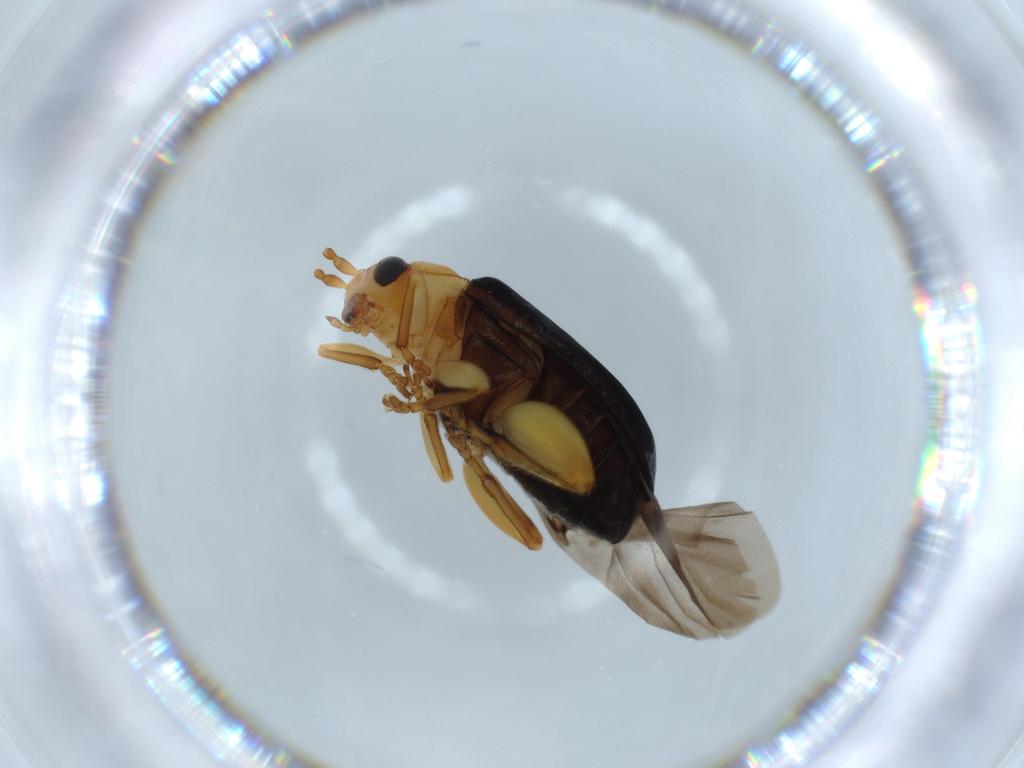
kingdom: Animalia
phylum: Arthropoda
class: Insecta
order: Coleoptera
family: Chrysomelidae
